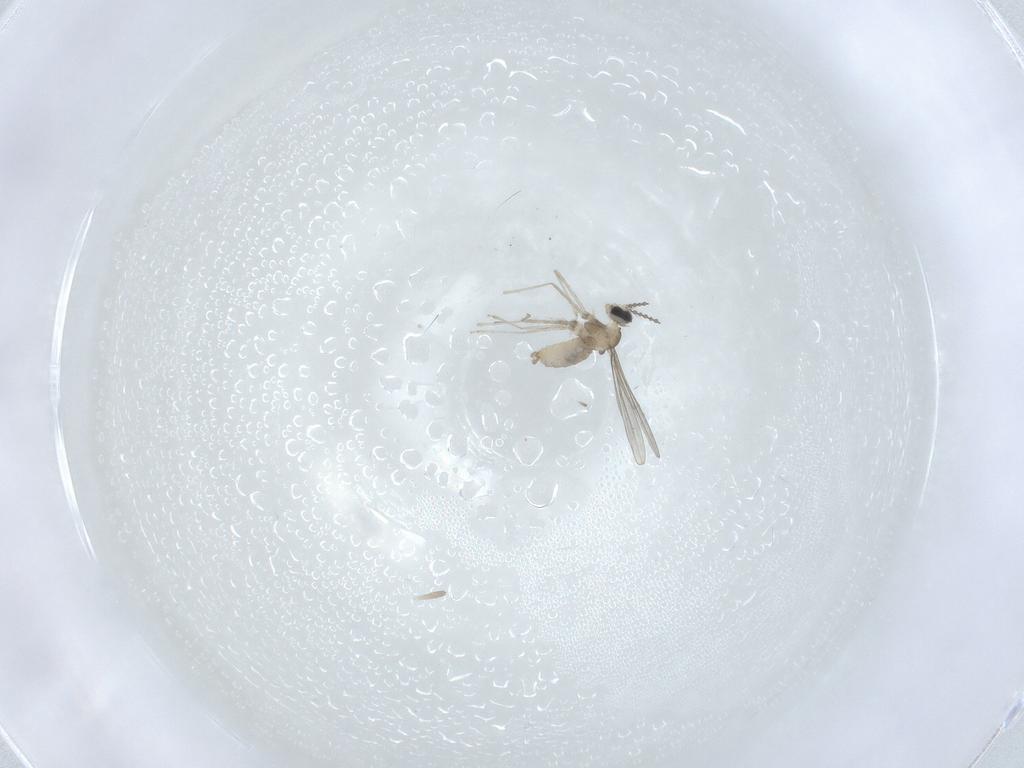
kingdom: Animalia
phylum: Arthropoda
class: Insecta
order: Diptera
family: Cecidomyiidae
